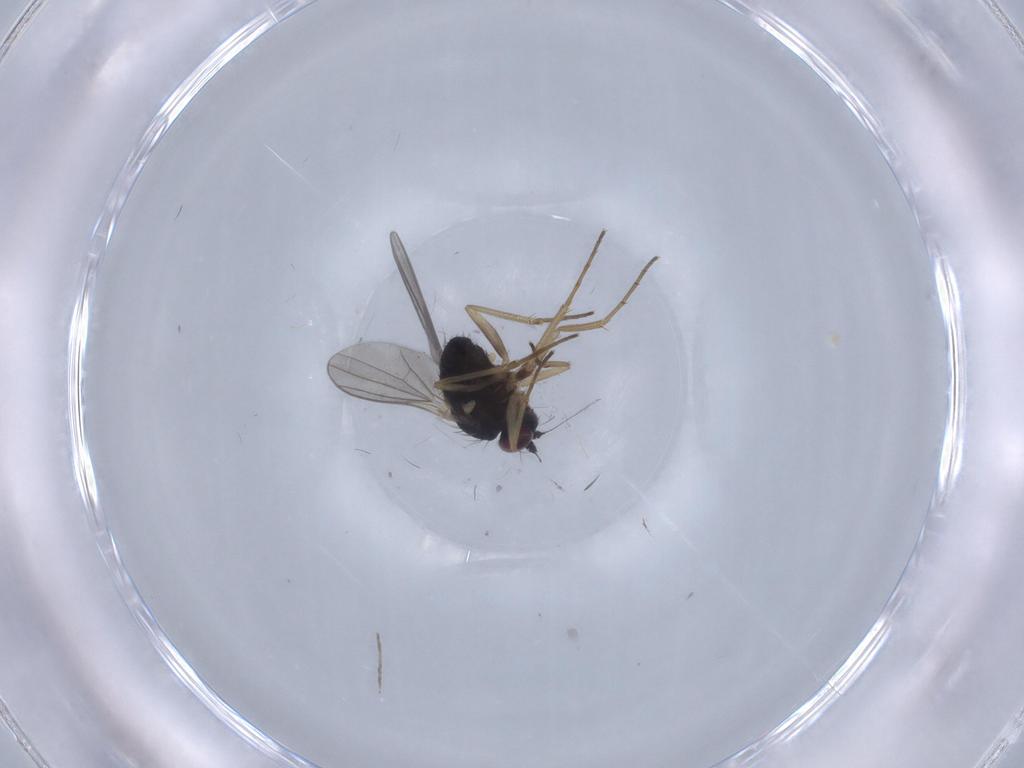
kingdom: Animalia
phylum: Arthropoda
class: Insecta
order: Diptera
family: Dolichopodidae
